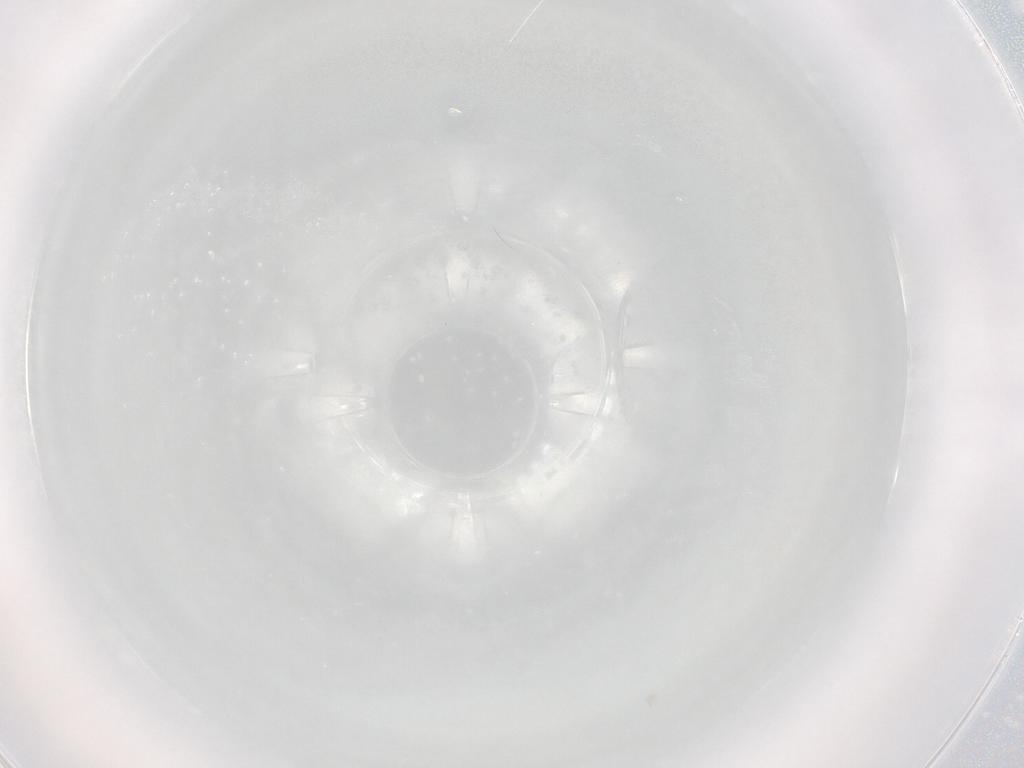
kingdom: Animalia
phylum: Arthropoda
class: Arachnida
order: Trombidiformes
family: Anystidae
